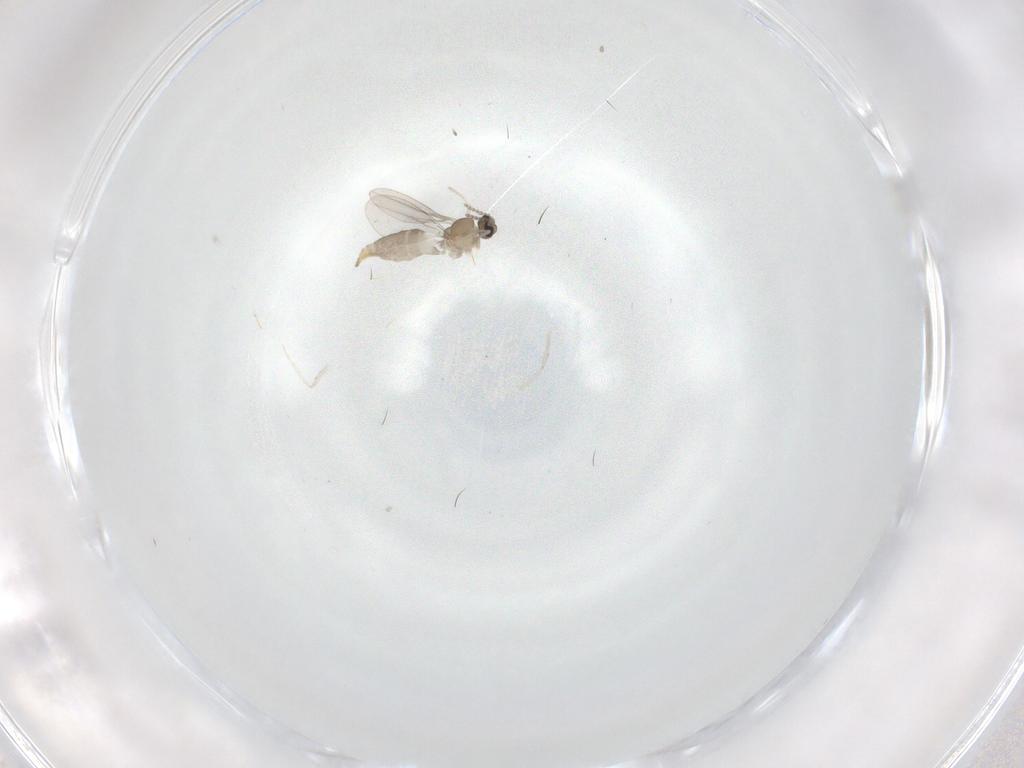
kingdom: Animalia
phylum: Arthropoda
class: Insecta
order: Diptera
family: Cecidomyiidae
